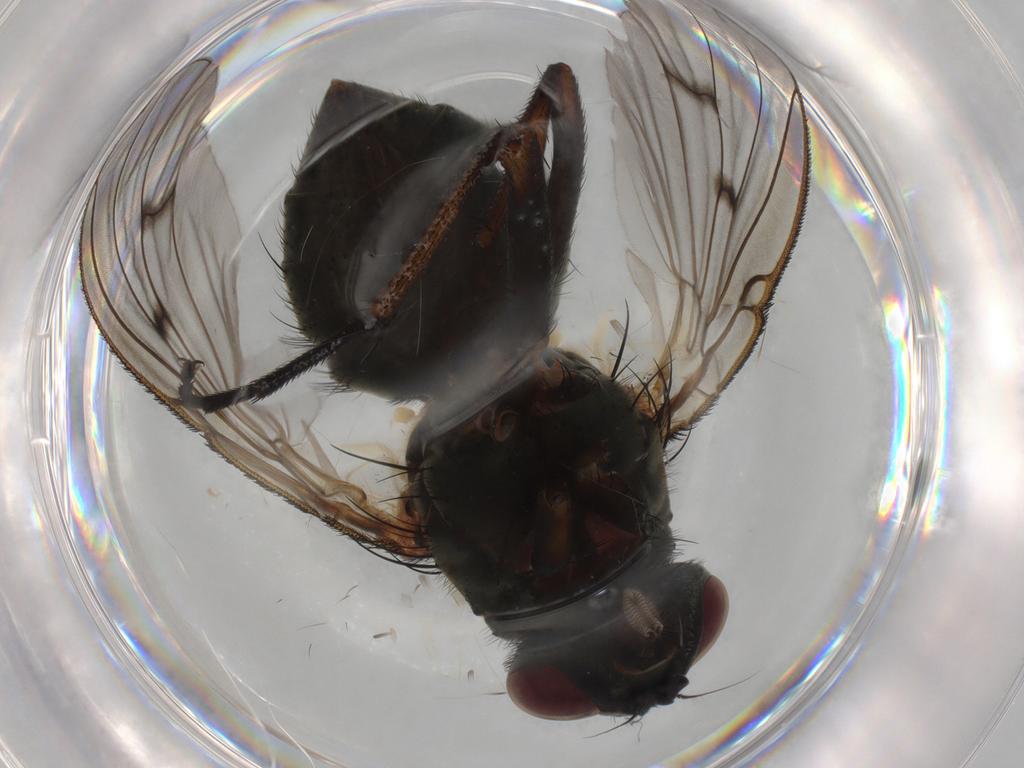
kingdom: Animalia
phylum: Arthropoda
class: Insecta
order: Diptera
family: Muscidae
